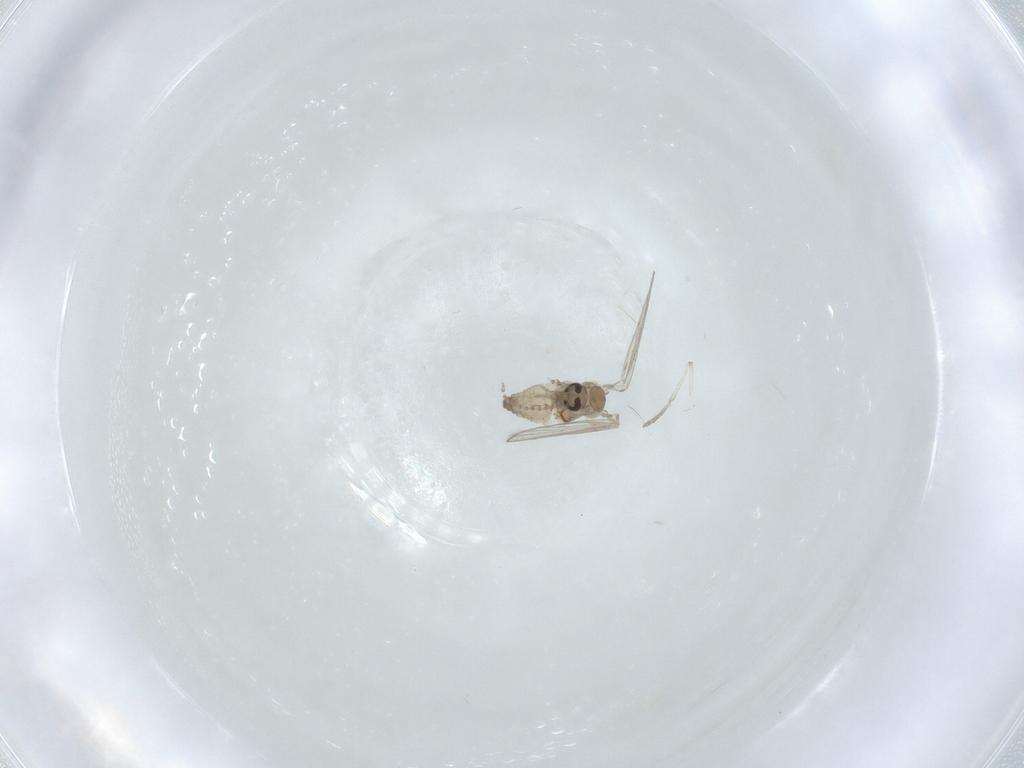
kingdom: Animalia
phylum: Arthropoda
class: Insecta
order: Diptera
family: Psychodidae
